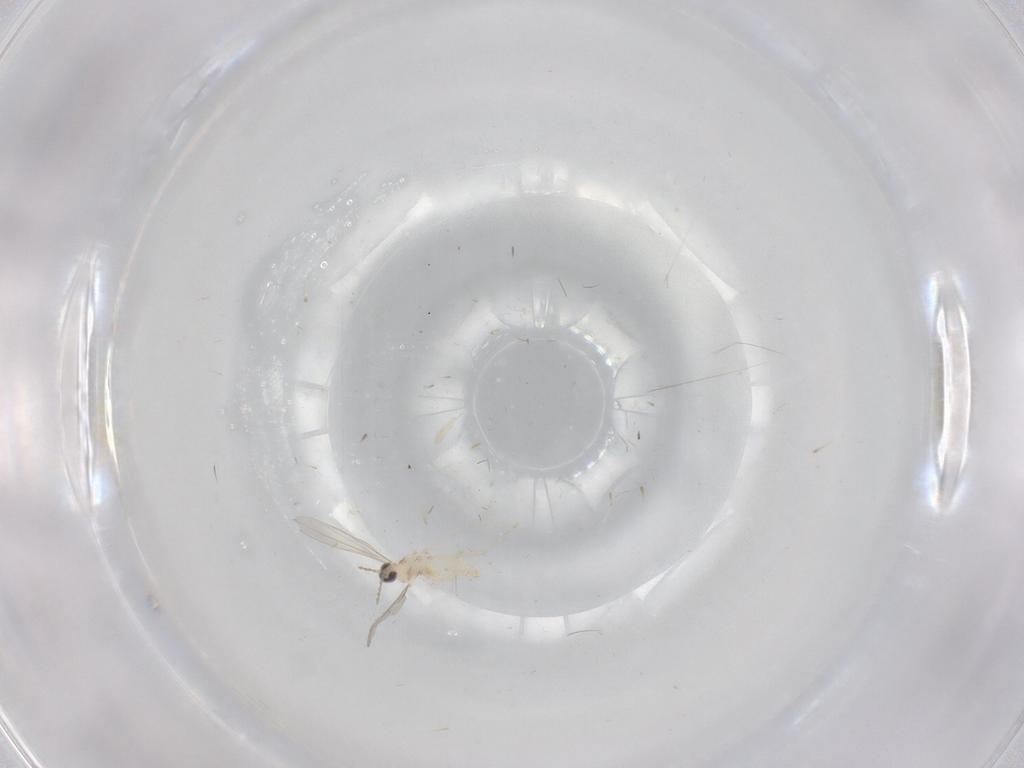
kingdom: Animalia
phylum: Arthropoda
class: Insecta
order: Diptera
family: Cecidomyiidae
